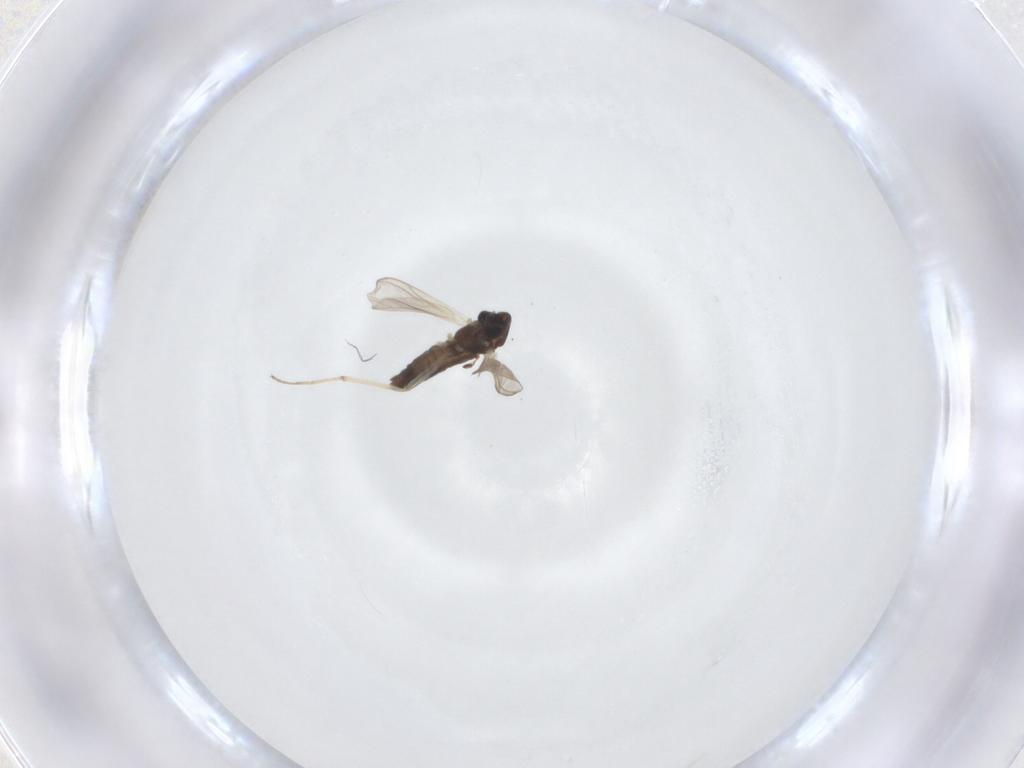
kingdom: Animalia
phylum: Arthropoda
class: Insecta
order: Diptera
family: Chironomidae
